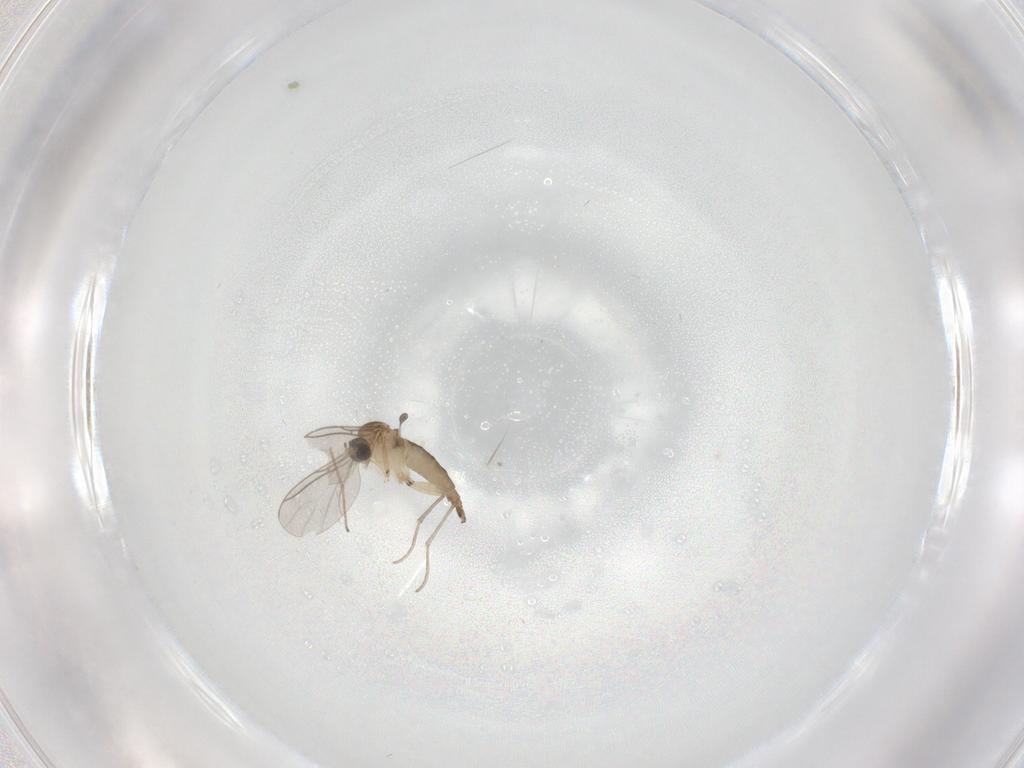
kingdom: Animalia
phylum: Arthropoda
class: Insecta
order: Diptera
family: Sciaridae
